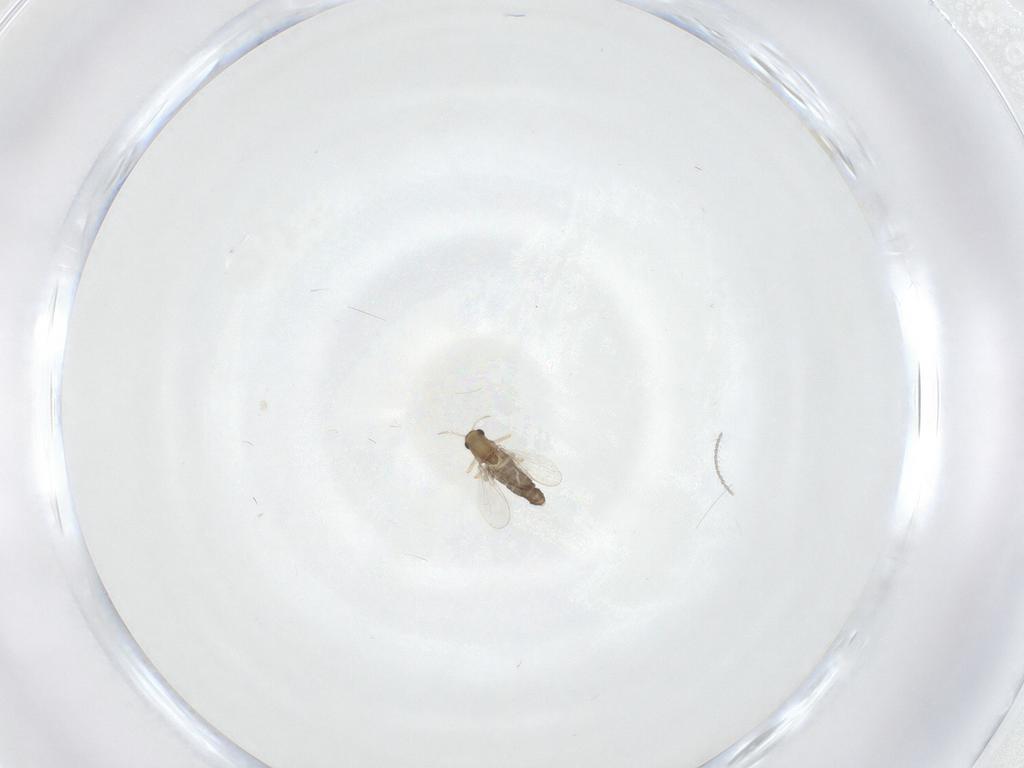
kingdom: Animalia
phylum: Arthropoda
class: Insecta
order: Diptera
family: Chironomidae
